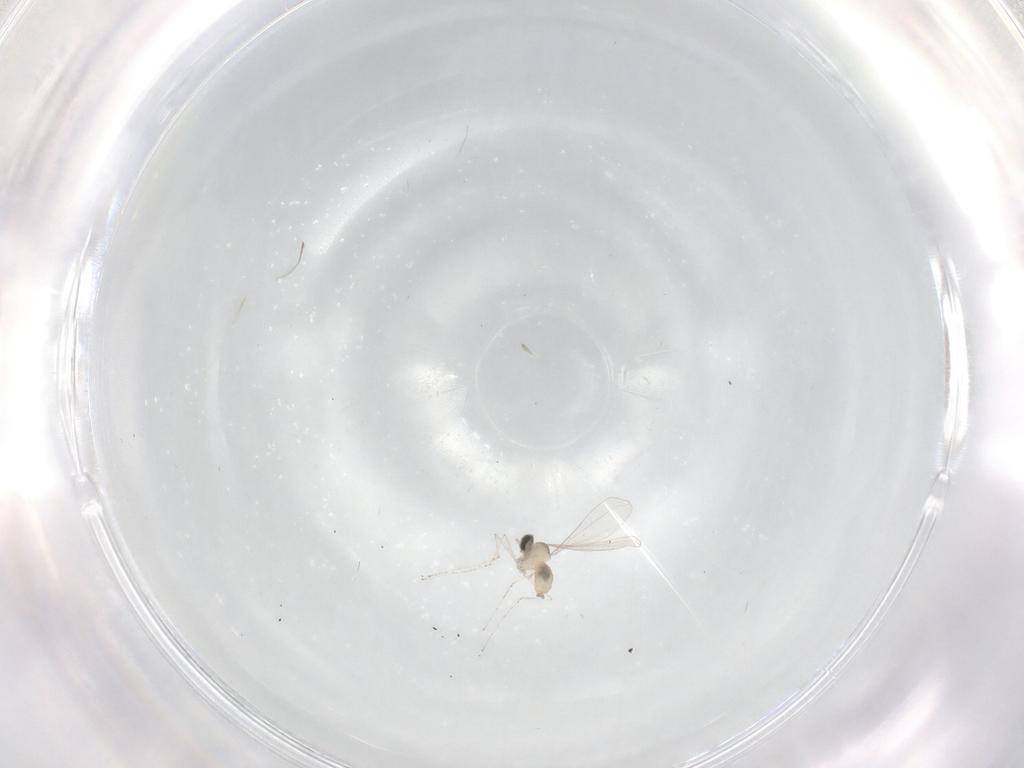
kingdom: Animalia
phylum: Arthropoda
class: Insecta
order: Diptera
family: Cecidomyiidae
